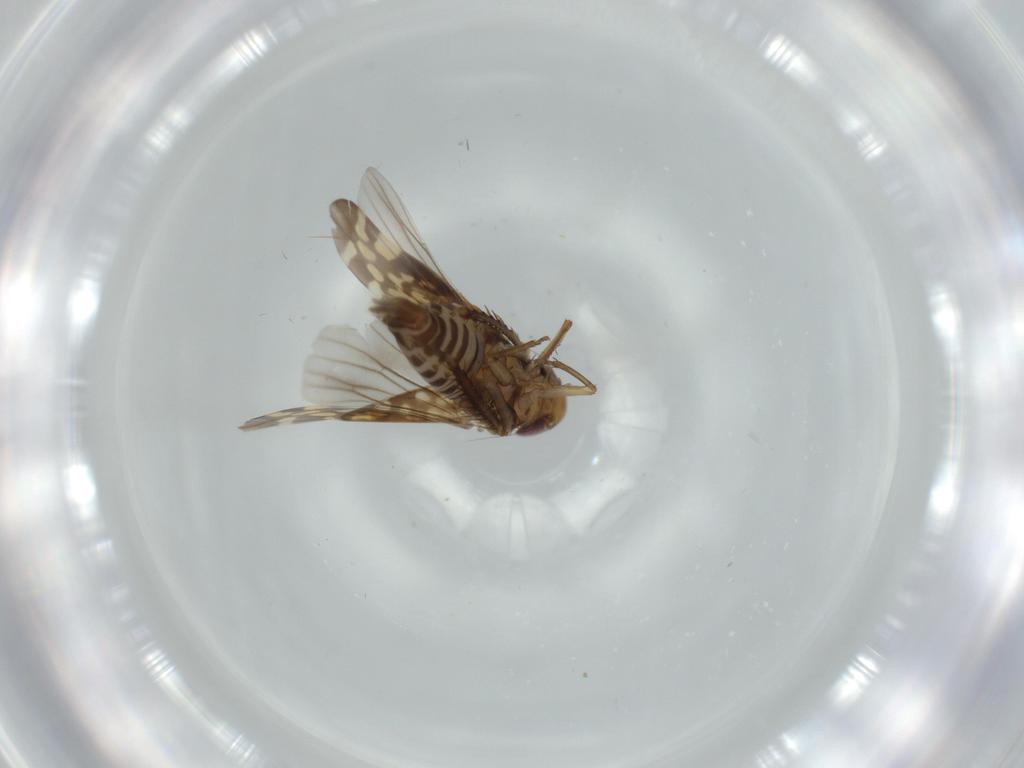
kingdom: Animalia
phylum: Arthropoda
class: Insecta
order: Hemiptera
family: Cicadellidae
